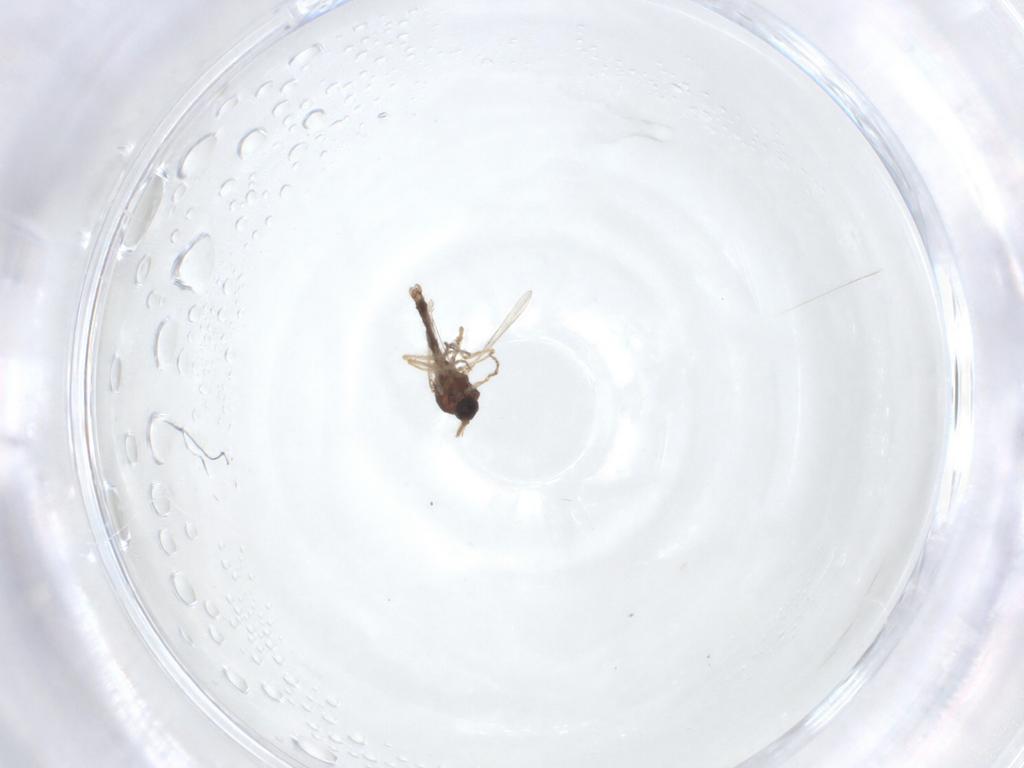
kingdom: Animalia
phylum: Arthropoda
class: Insecta
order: Diptera
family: Ceratopogonidae
